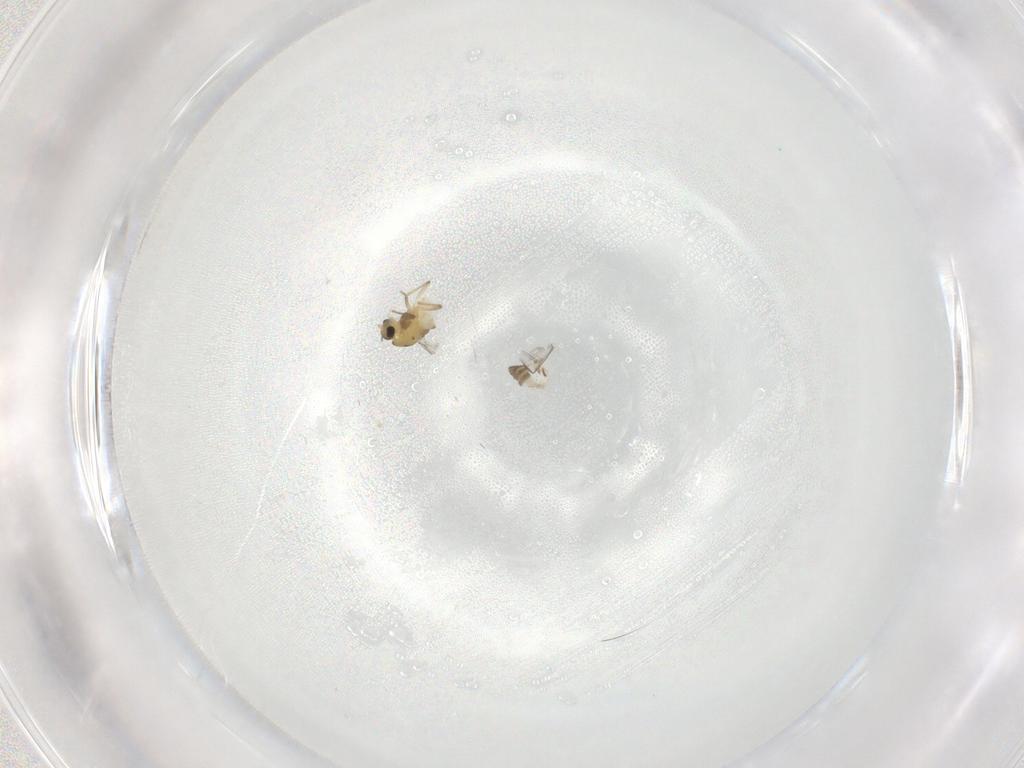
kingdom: Animalia
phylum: Arthropoda
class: Insecta
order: Diptera
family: Chironomidae
